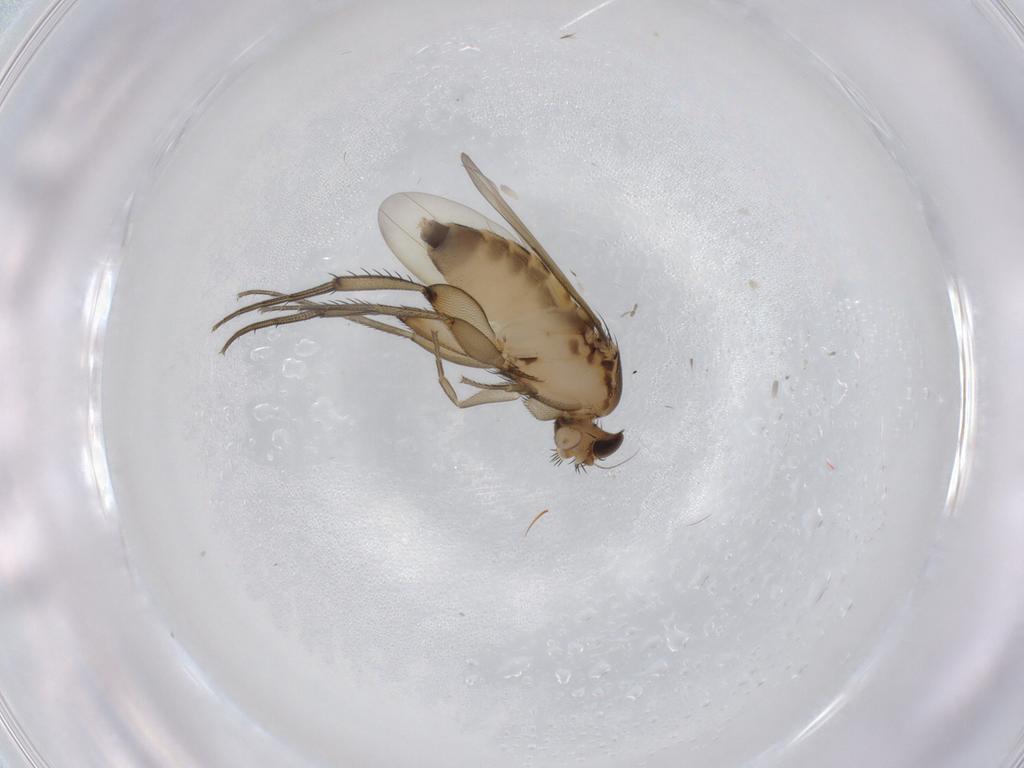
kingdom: Animalia
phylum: Arthropoda
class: Insecta
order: Diptera
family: Phoridae
